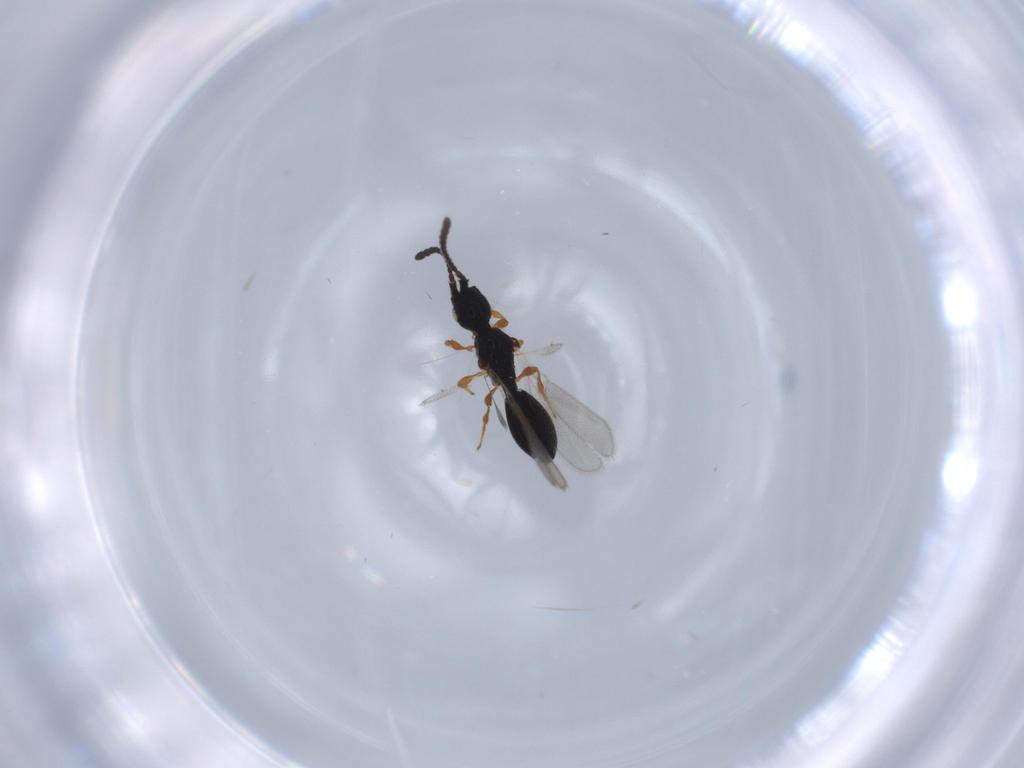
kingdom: Animalia
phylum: Arthropoda
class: Insecta
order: Hymenoptera
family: Diapriidae
